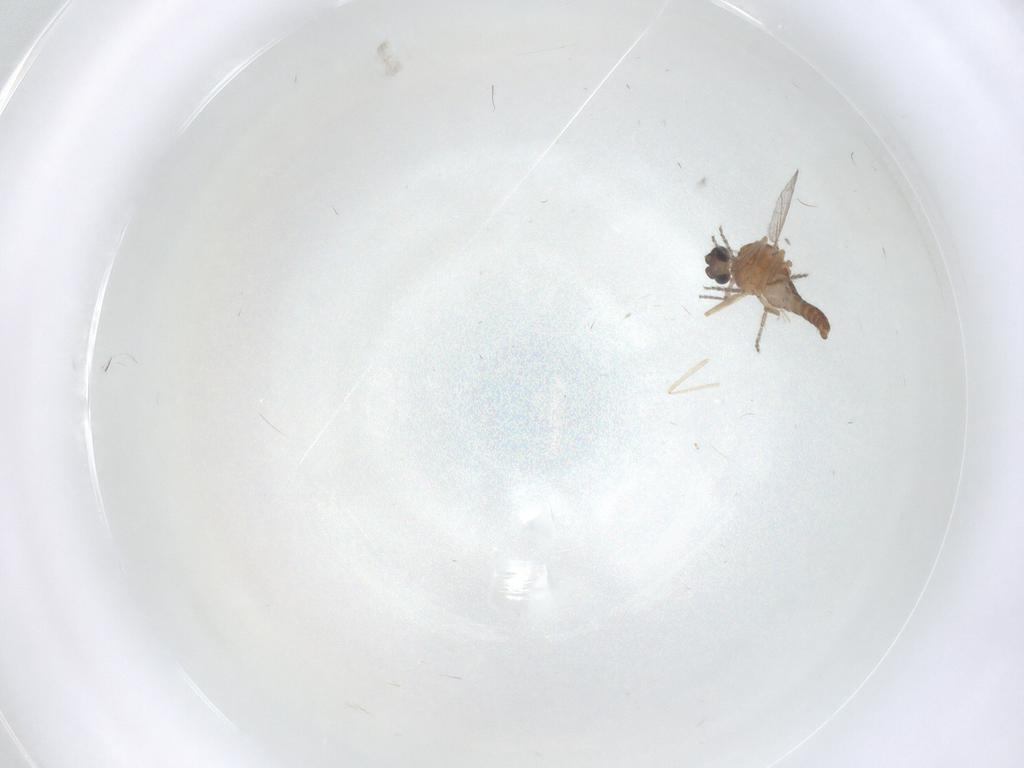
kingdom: Animalia
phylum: Arthropoda
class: Insecta
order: Diptera
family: Ceratopogonidae
